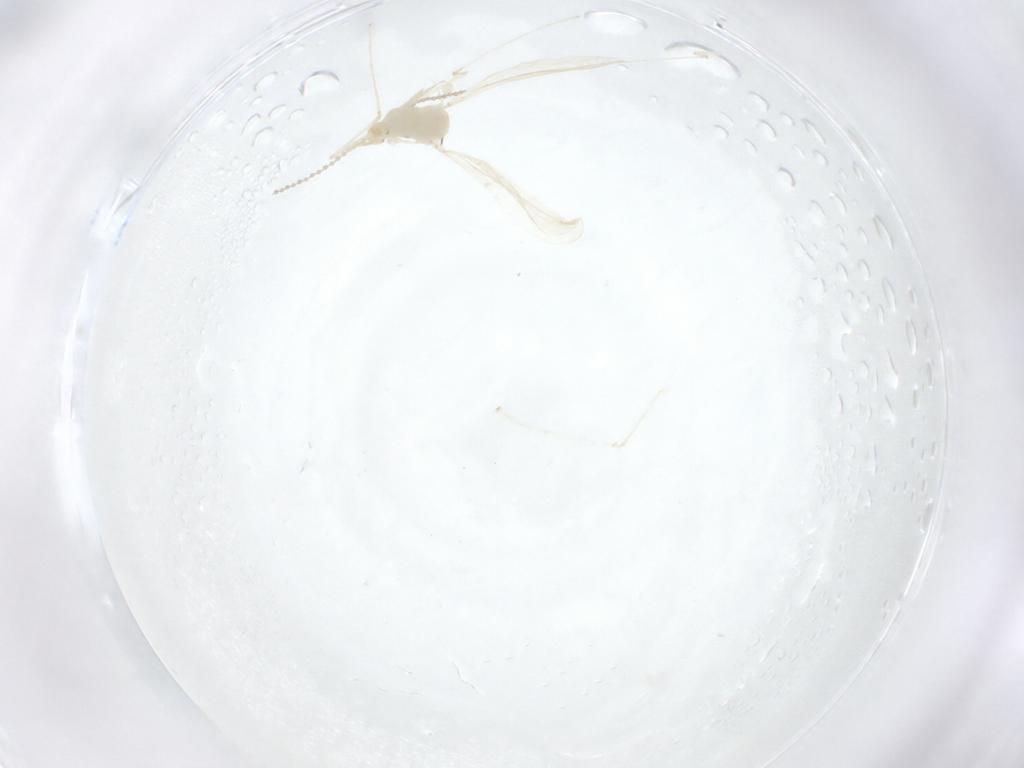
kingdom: Animalia
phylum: Arthropoda
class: Insecta
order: Diptera
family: Cecidomyiidae
